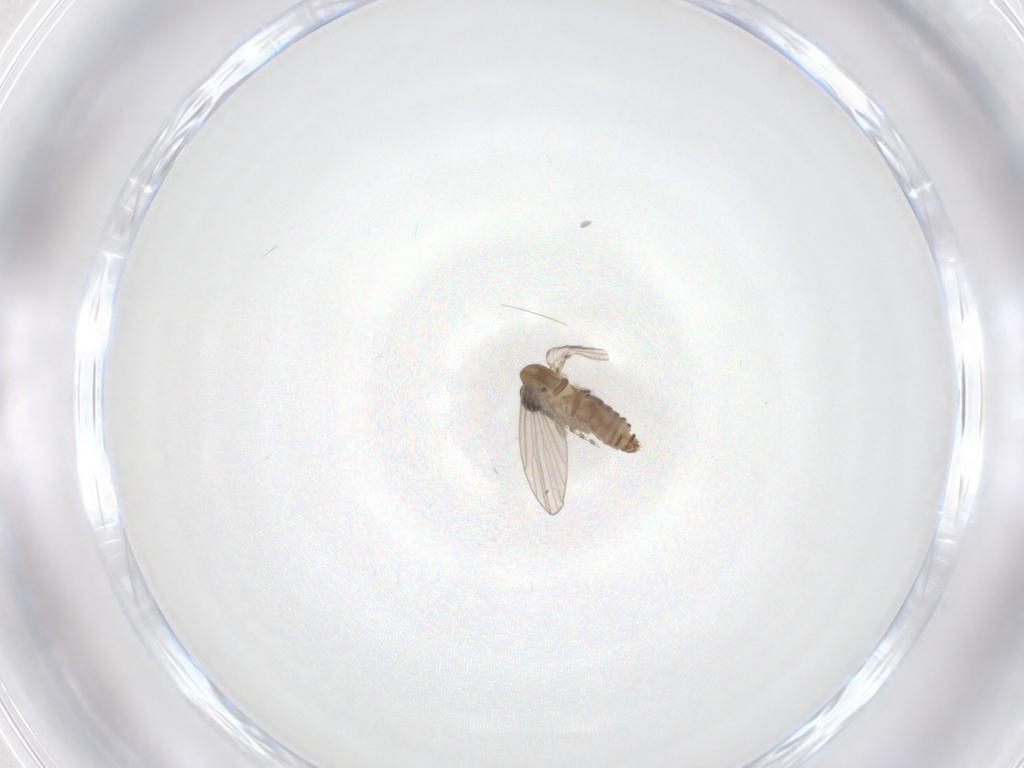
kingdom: Animalia
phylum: Arthropoda
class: Insecta
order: Diptera
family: Psychodidae
